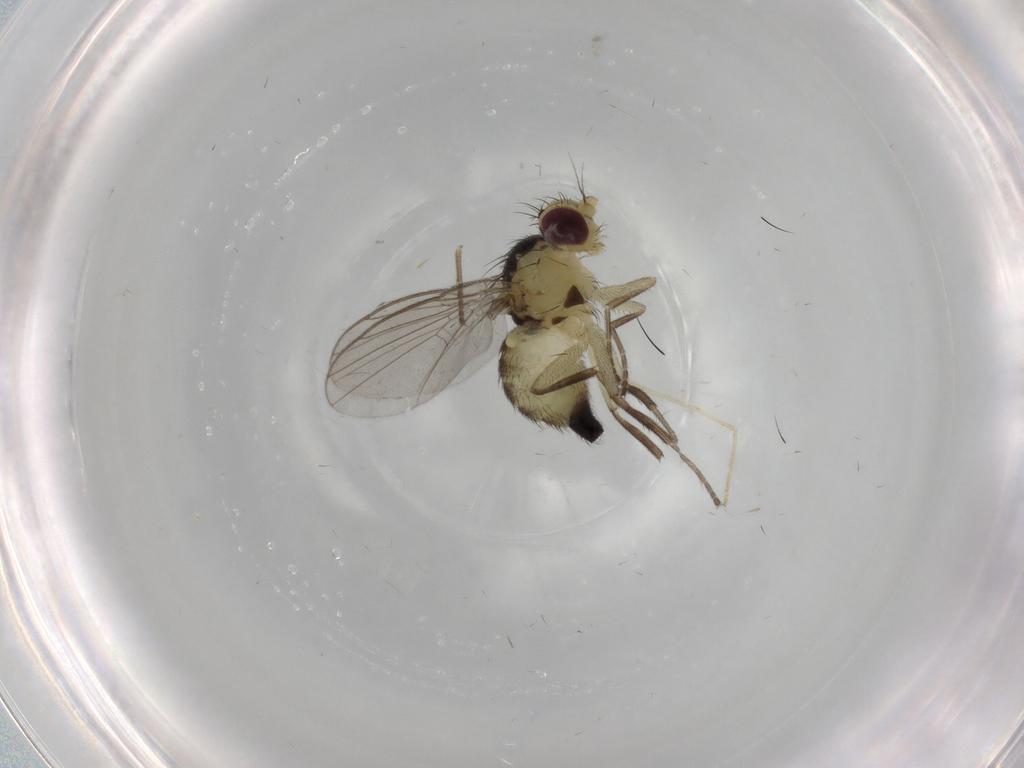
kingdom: Animalia
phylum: Arthropoda
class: Insecta
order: Diptera
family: Agromyzidae
